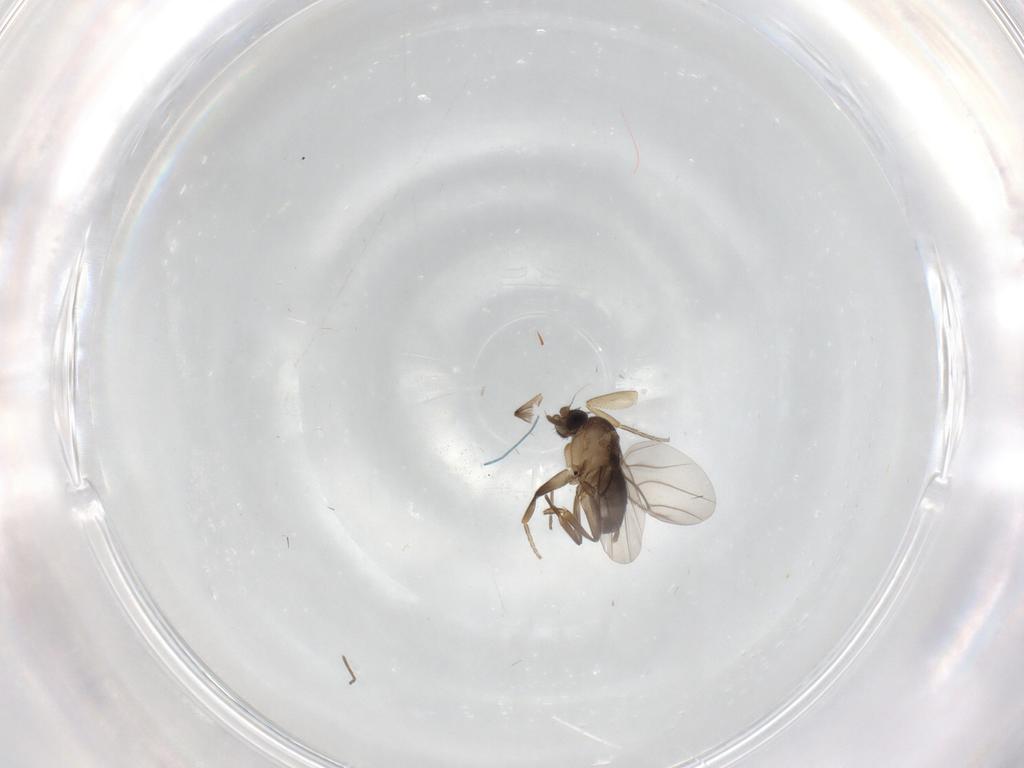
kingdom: Animalia
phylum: Arthropoda
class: Insecta
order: Diptera
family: Phoridae
